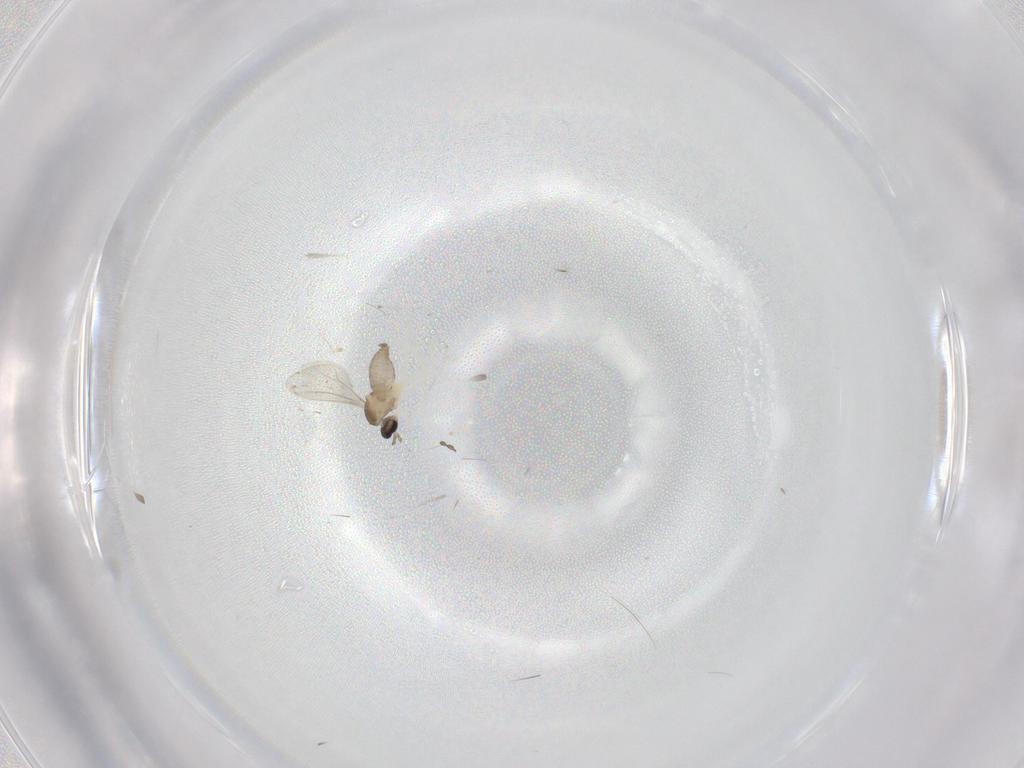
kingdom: Animalia
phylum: Arthropoda
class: Insecta
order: Diptera
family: Cecidomyiidae
